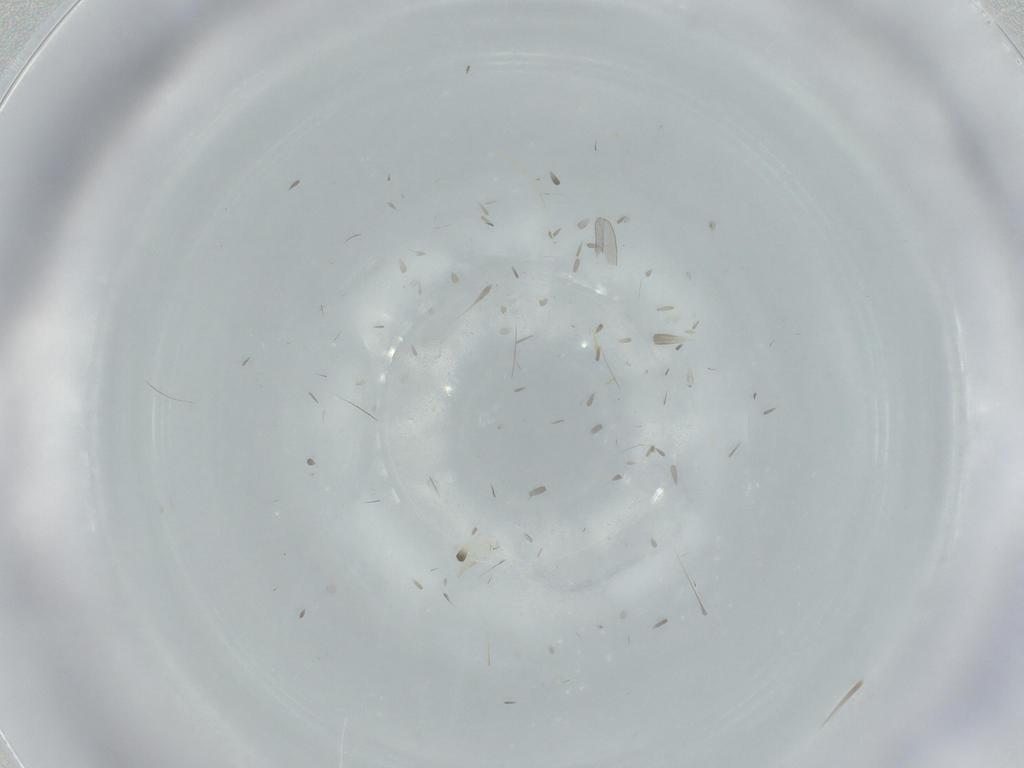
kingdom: Animalia
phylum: Arthropoda
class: Insecta
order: Psocodea
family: Lepidopsocidae
